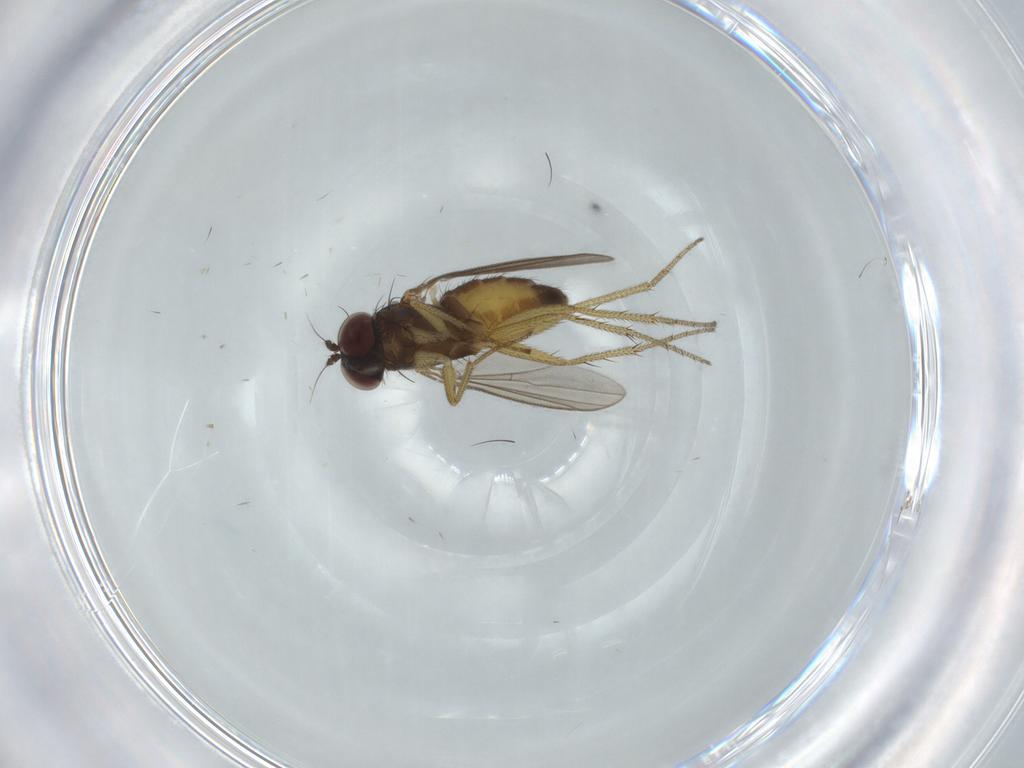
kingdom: Animalia
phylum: Arthropoda
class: Insecta
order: Diptera
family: Dolichopodidae
